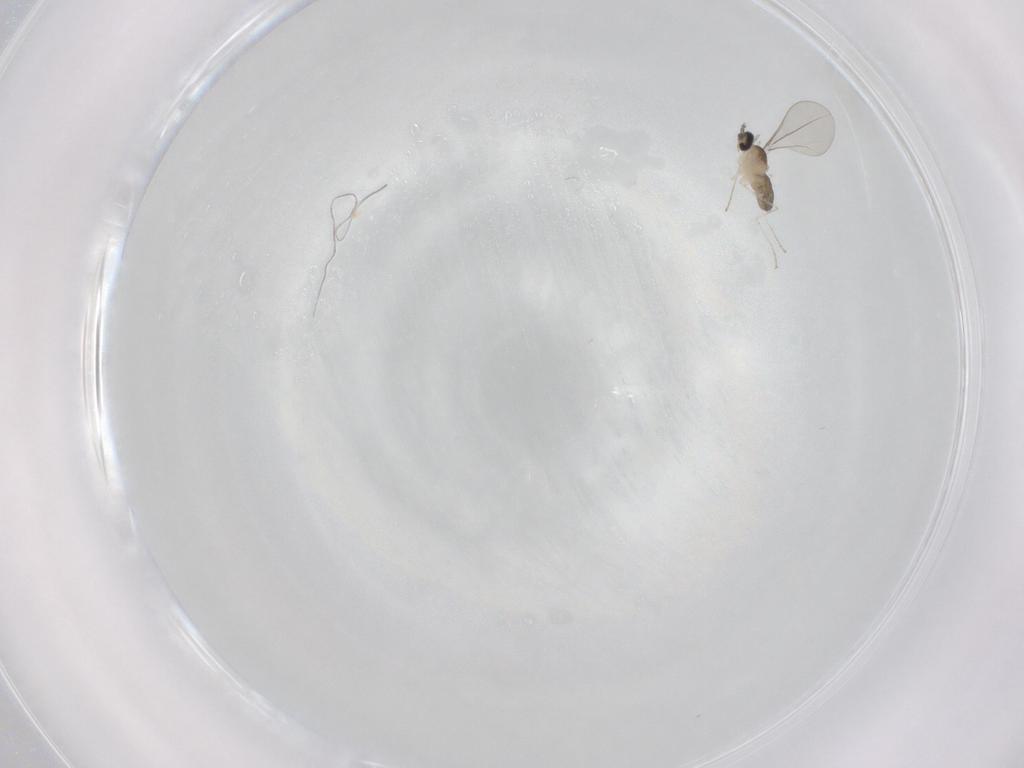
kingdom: Animalia
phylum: Arthropoda
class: Insecta
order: Diptera
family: Cecidomyiidae
